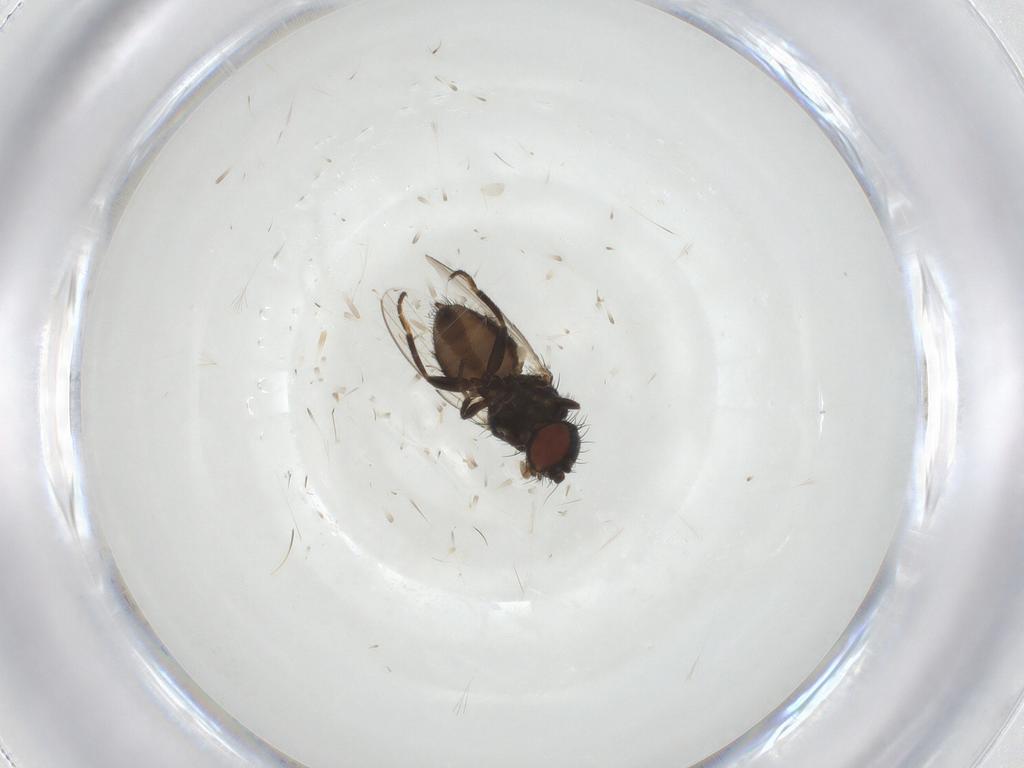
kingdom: Animalia
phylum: Arthropoda
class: Insecta
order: Diptera
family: Milichiidae
